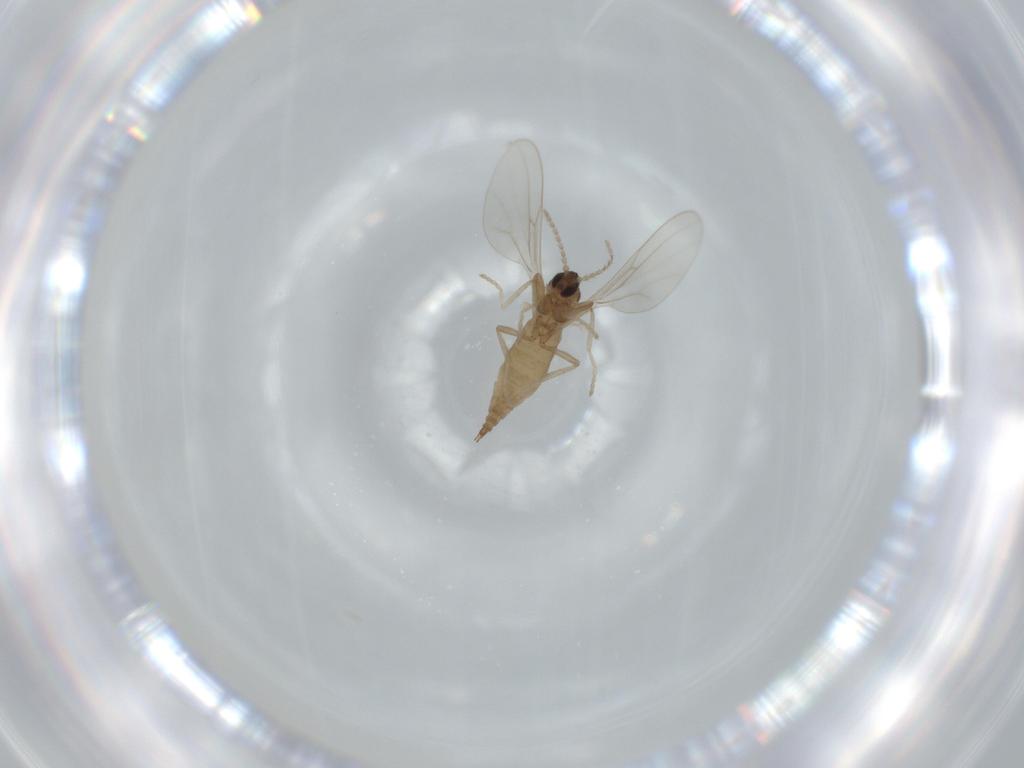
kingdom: Animalia
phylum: Arthropoda
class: Insecta
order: Diptera
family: Cecidomyiidae
